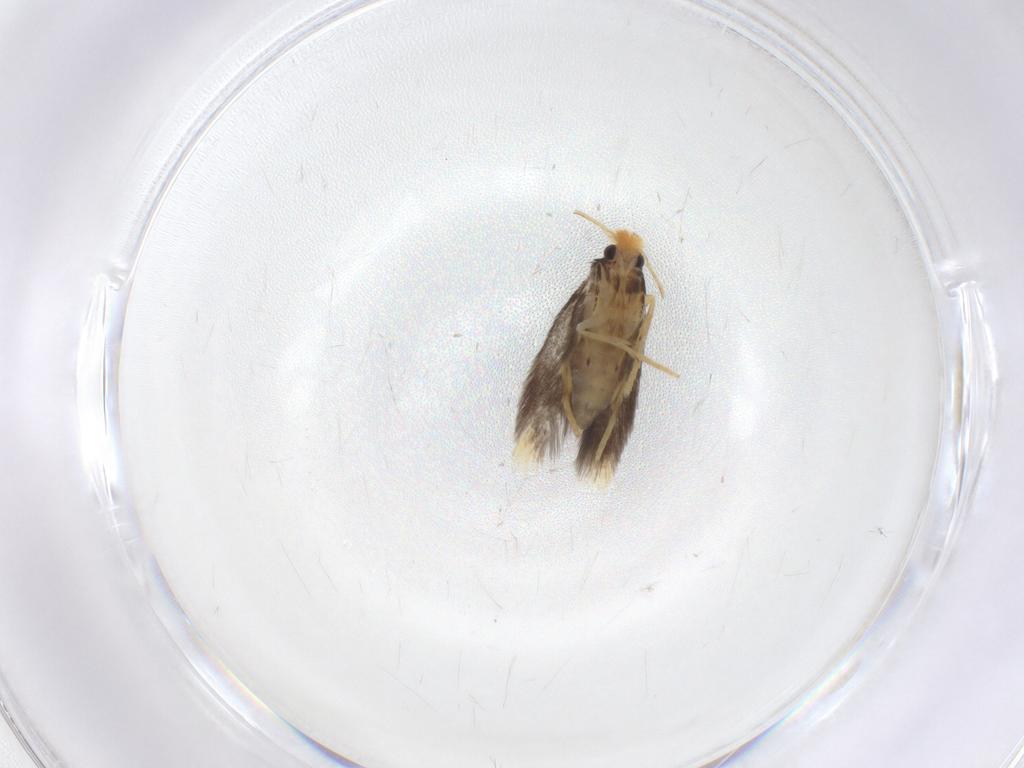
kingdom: Animalia
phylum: Arthropoda
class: Insecta
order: Lepidoptera
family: Nepticulidae
